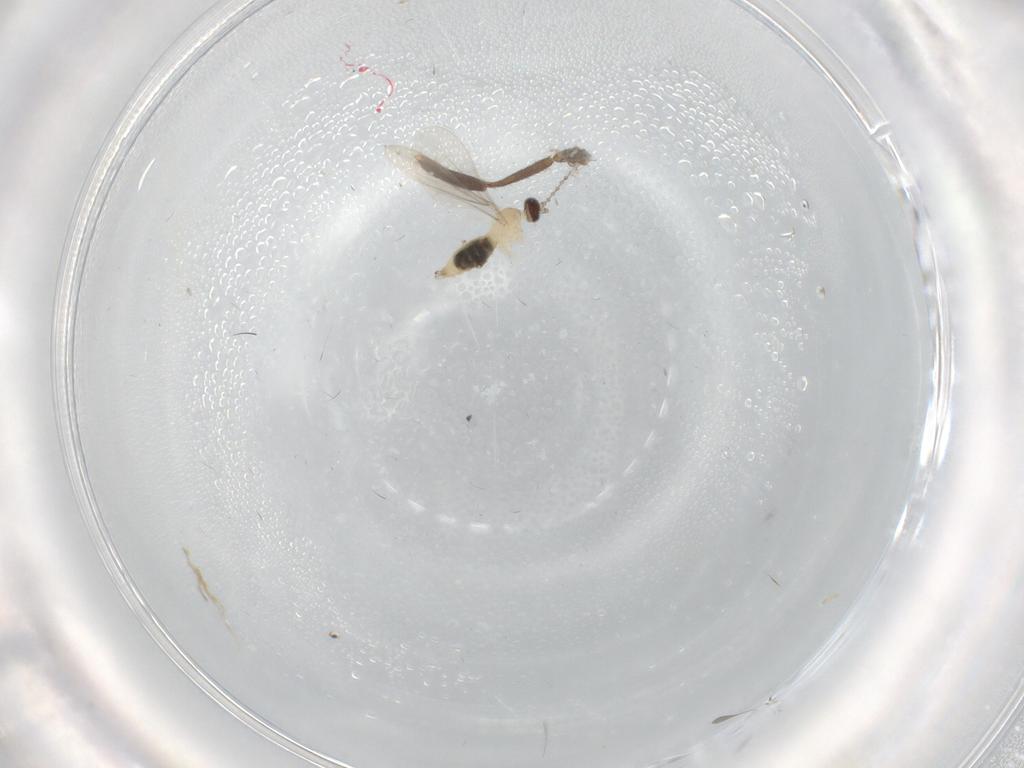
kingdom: Animalia
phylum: Arthropoda
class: Insecta
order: Diptera
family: Cecidomyiidae
